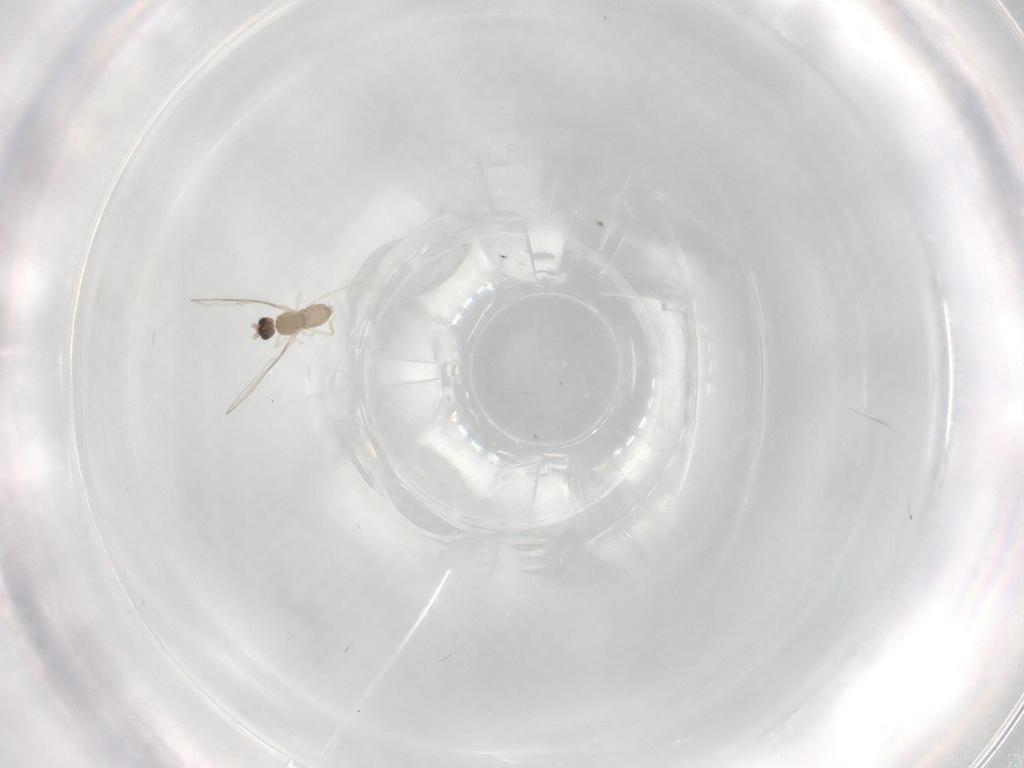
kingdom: Animalia
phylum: Arthropoda
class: Insecta
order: Diptera
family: Cecidomyiidae
